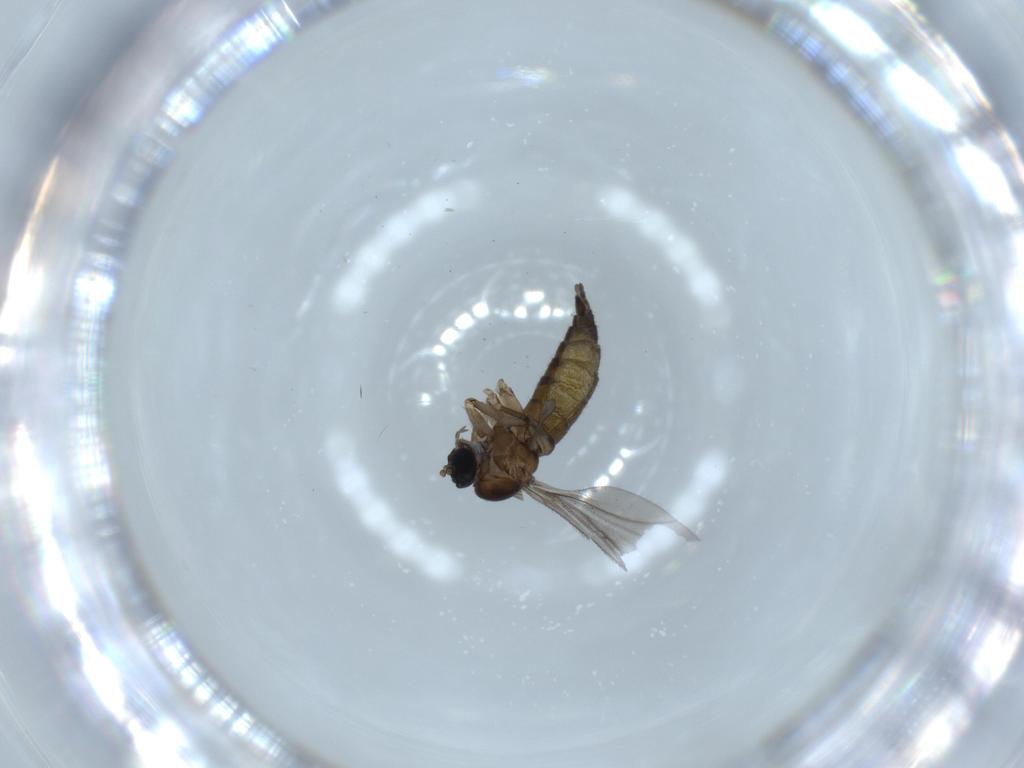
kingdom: Animalia
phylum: Arthropoda
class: Insecta
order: Diptera
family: Sciaridae
